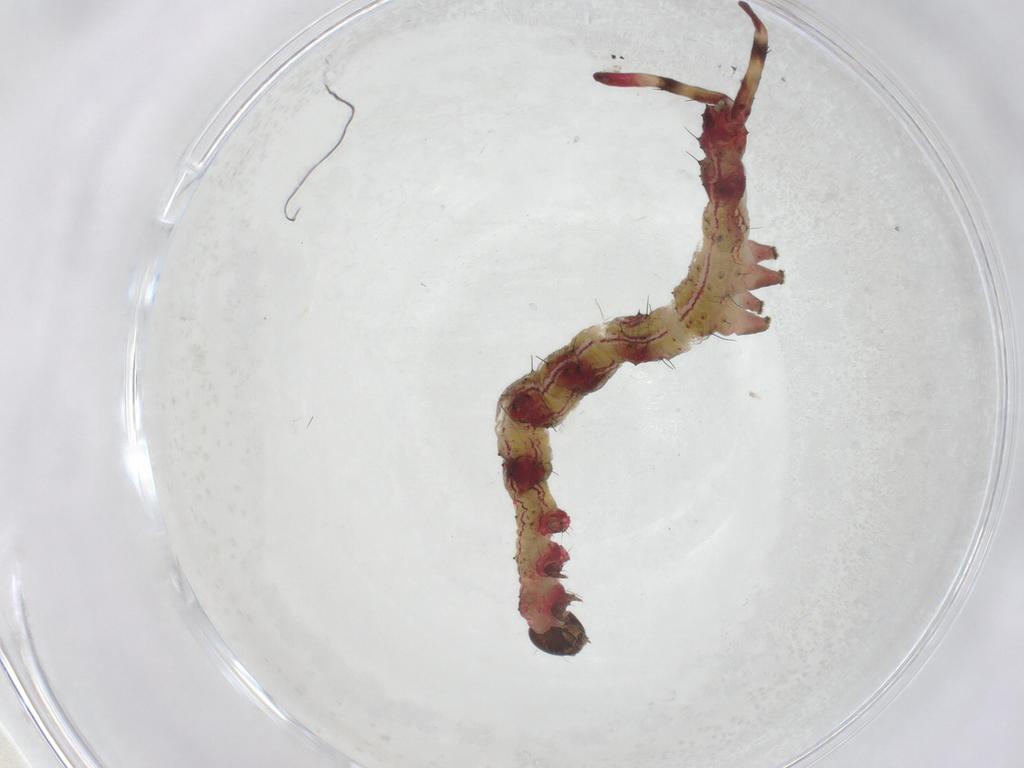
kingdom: Animalia
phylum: Arthropoda
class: Insecta
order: Lepidoptera
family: Erebidae
